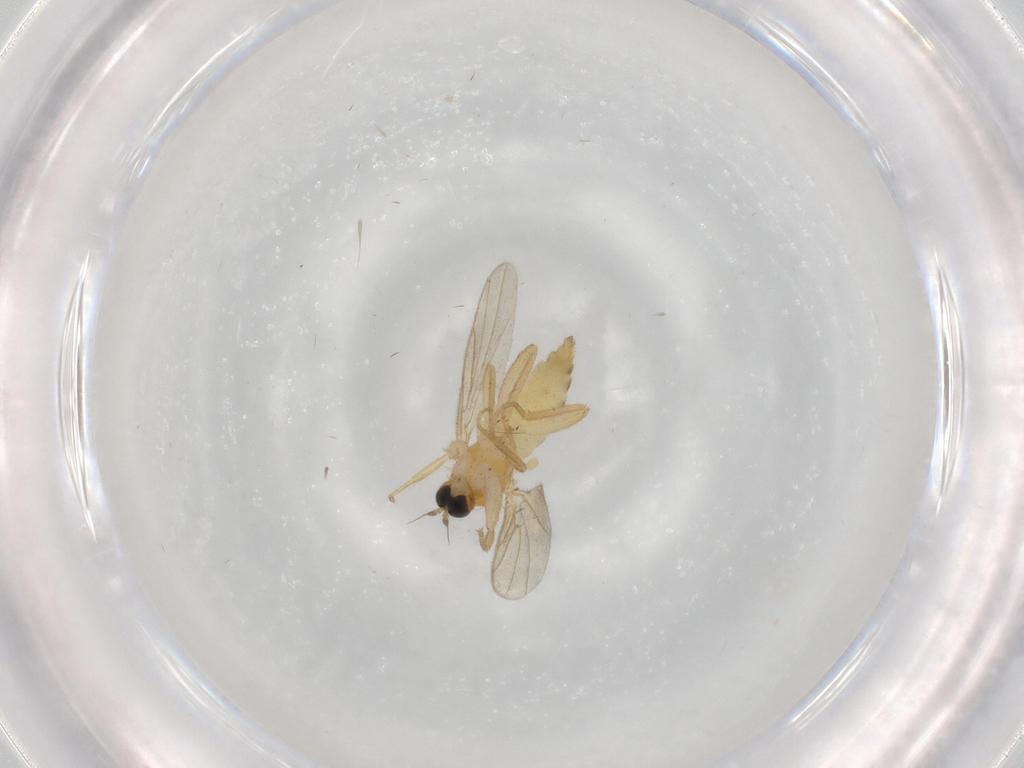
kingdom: Animalia
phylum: Arthropoda
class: Insecta
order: Diptera
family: Hybotidae
